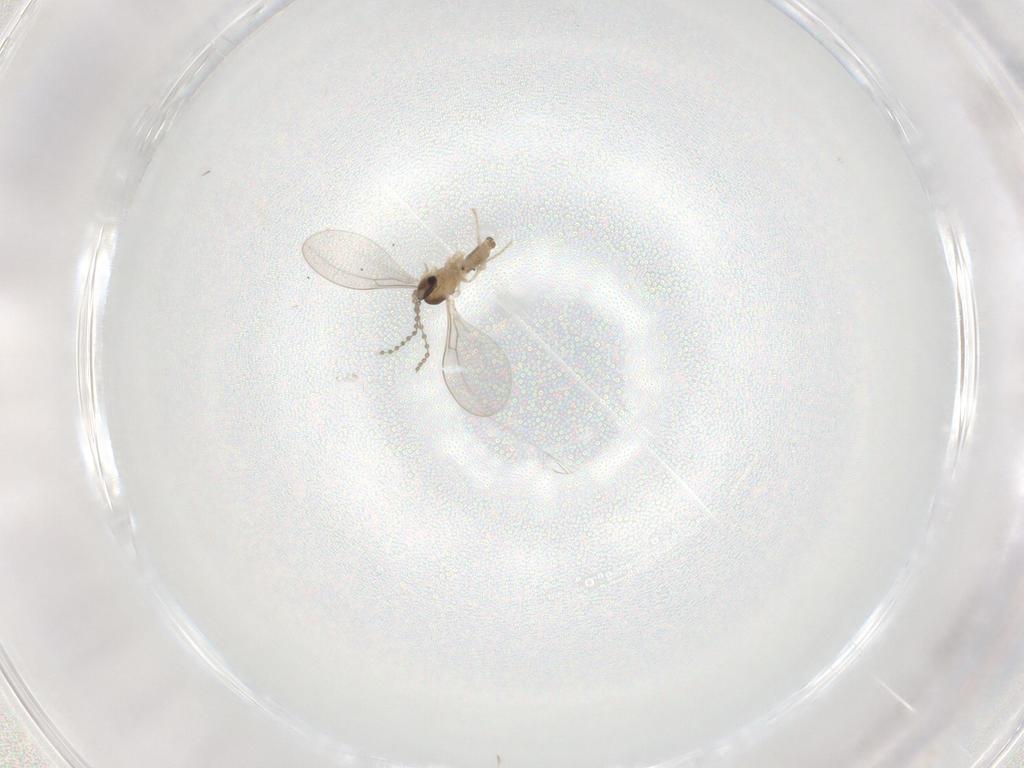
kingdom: Animalia
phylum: Arthropoda
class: Insecta
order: Diptera
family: Cecidomyiidae
